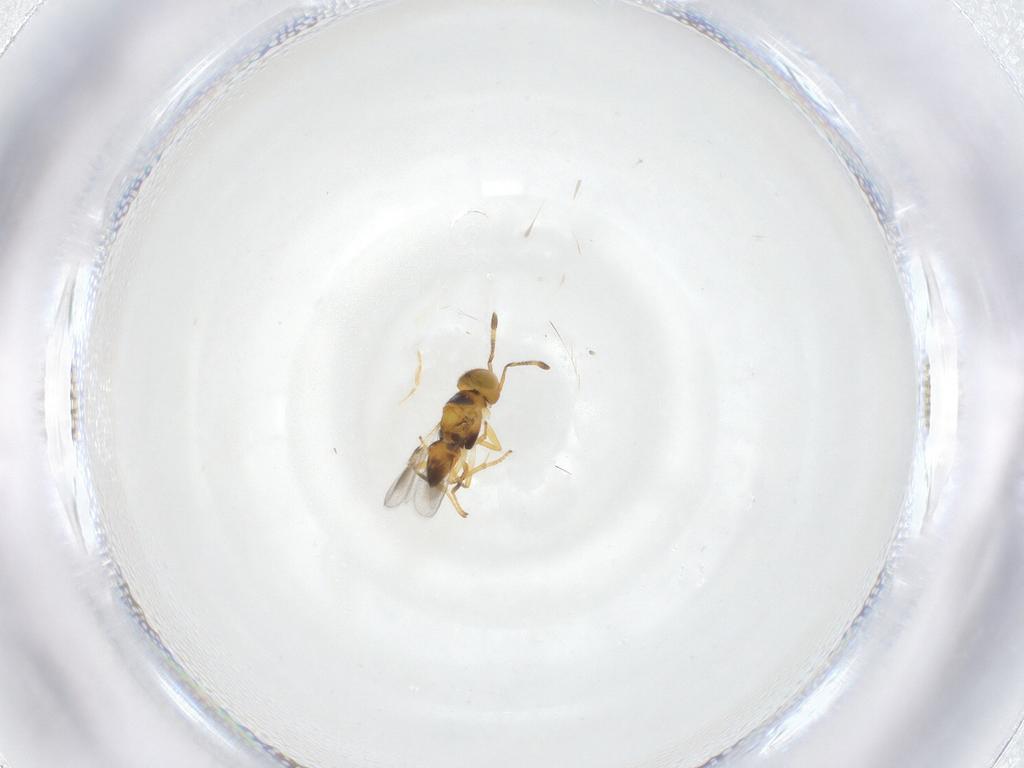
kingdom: Animalia
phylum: Arthropoda
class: Insecta
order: Hymenoptera
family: Encyrtidae
